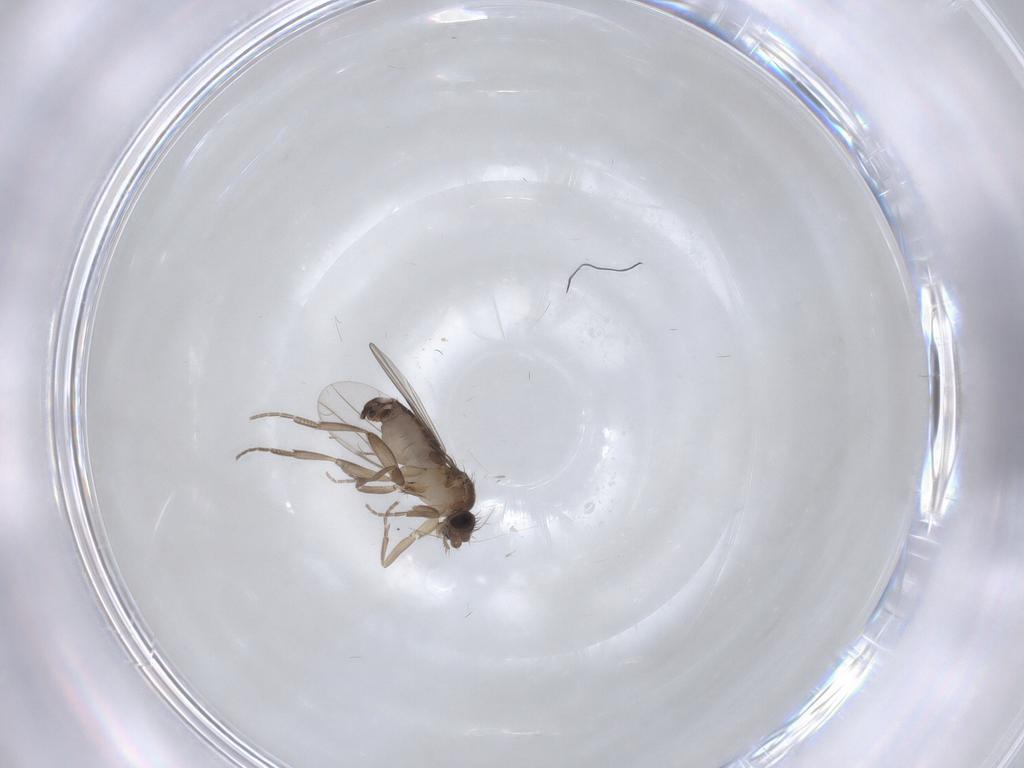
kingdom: Animalia
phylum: Arthropoda
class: Insecta
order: Diptera
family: Phoridae
